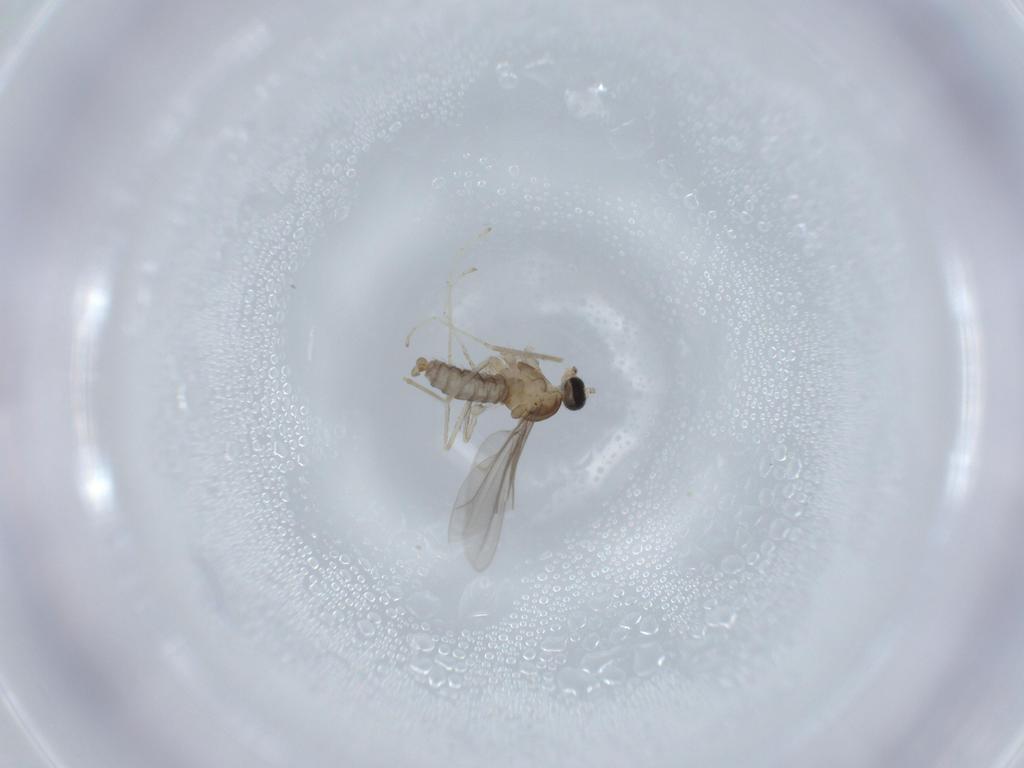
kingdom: Animalia
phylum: Arthropoda
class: Insecta
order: Diptera
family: Cecidomyiidae
